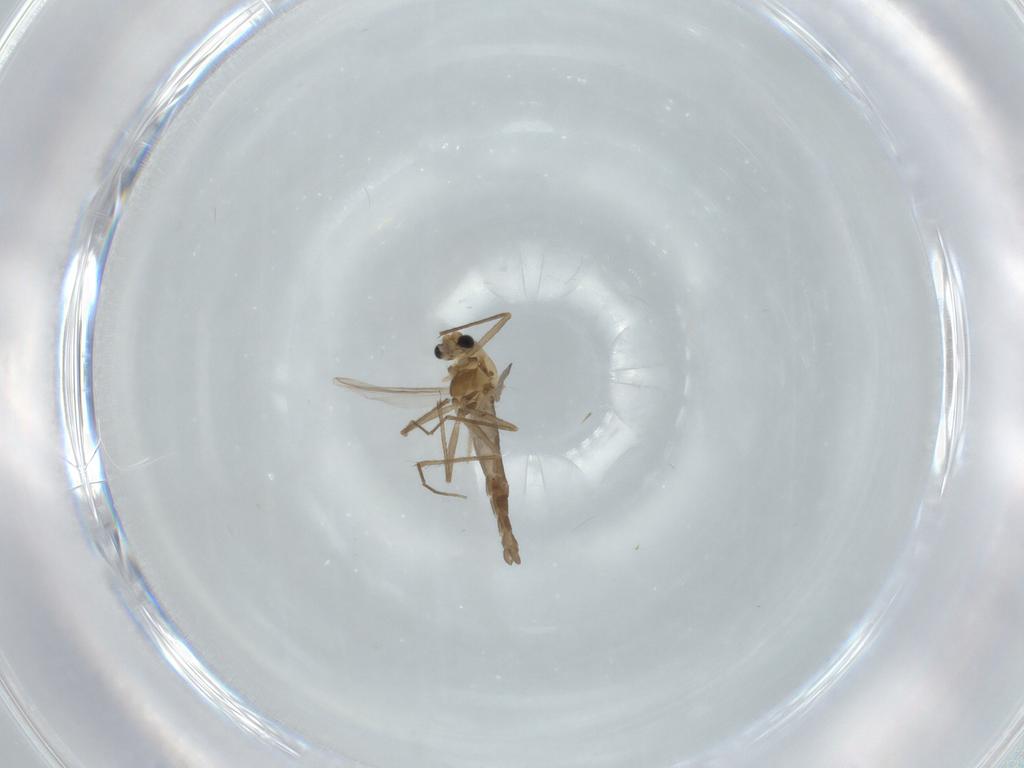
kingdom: Animalia
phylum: Arthropoda
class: Insecta
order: Diptera
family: Chironomidae
